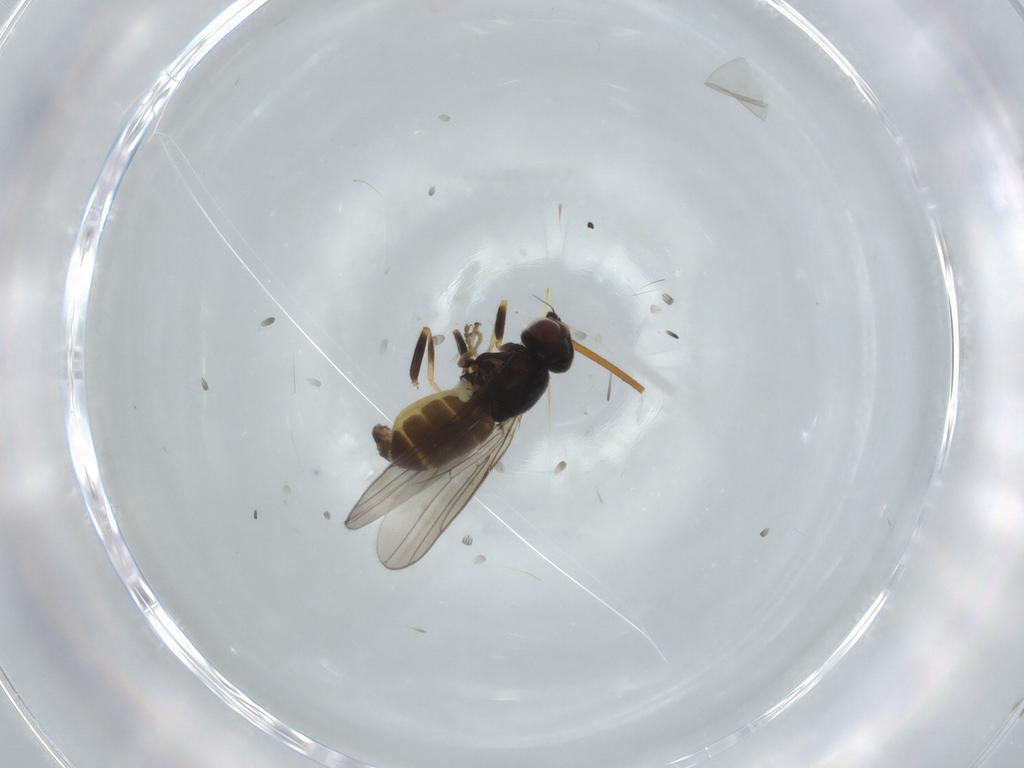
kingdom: Animalia
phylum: Arthropoda
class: Insecta
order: Diptera
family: Chloropidae
